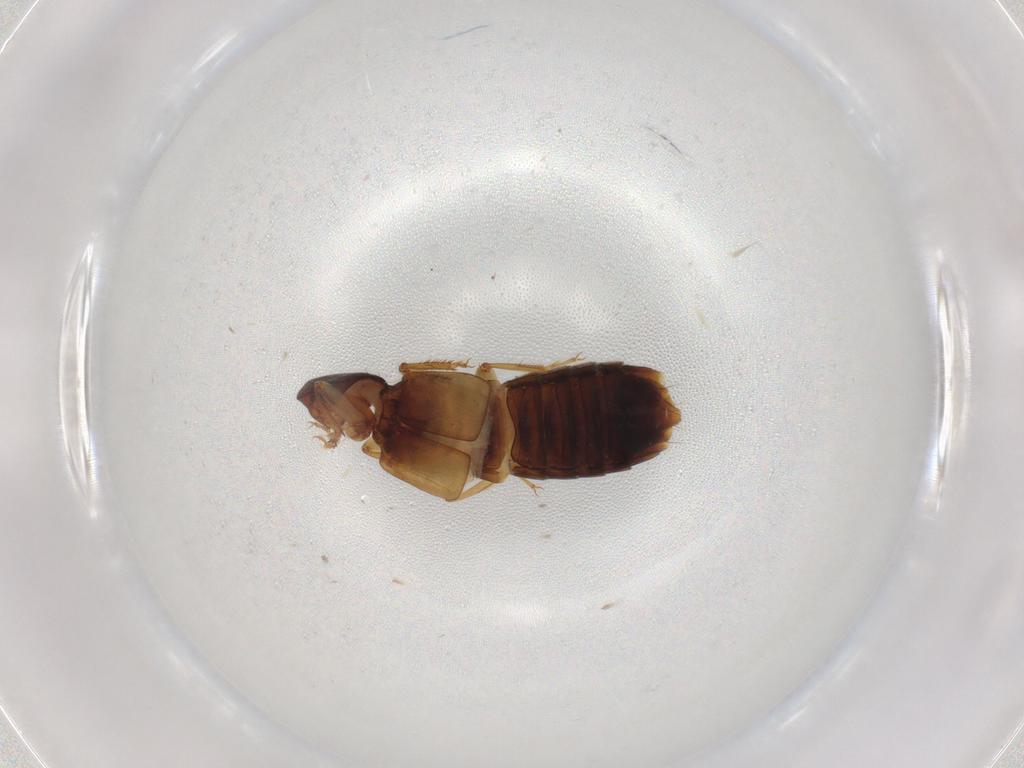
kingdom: Animalia
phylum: Arthropoda
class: Insecta
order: Coleoptera
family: Staphylinidae
